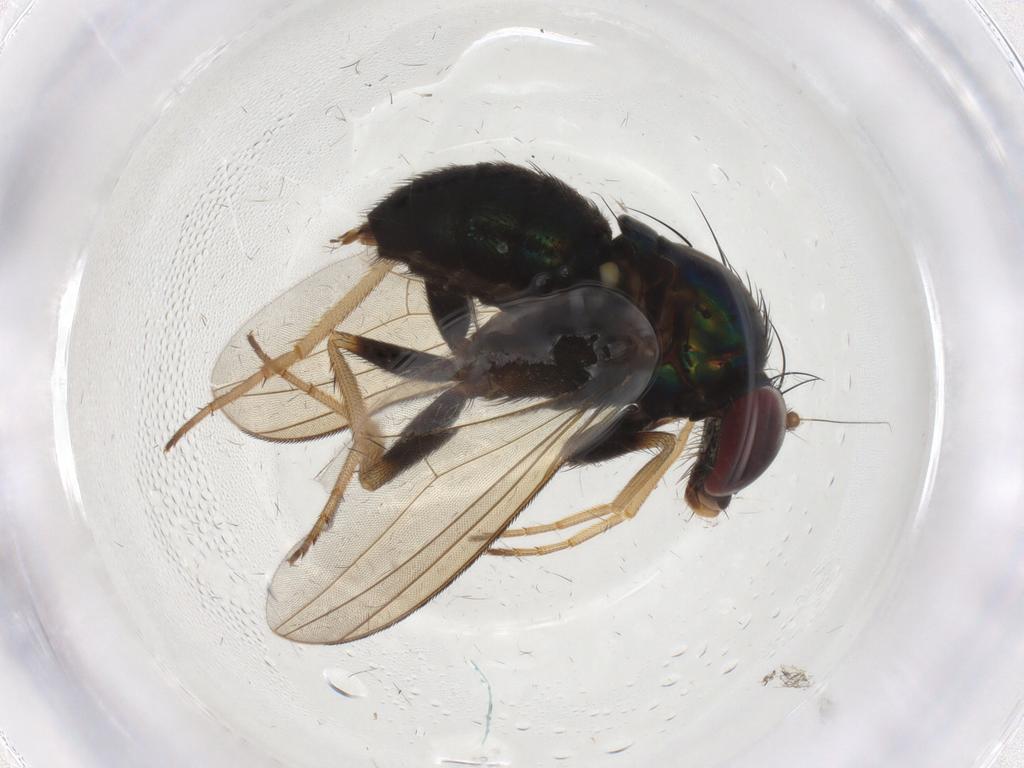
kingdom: Animalia
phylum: Arthropoda
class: Insecta
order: Diptera
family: Dolichopodidae
